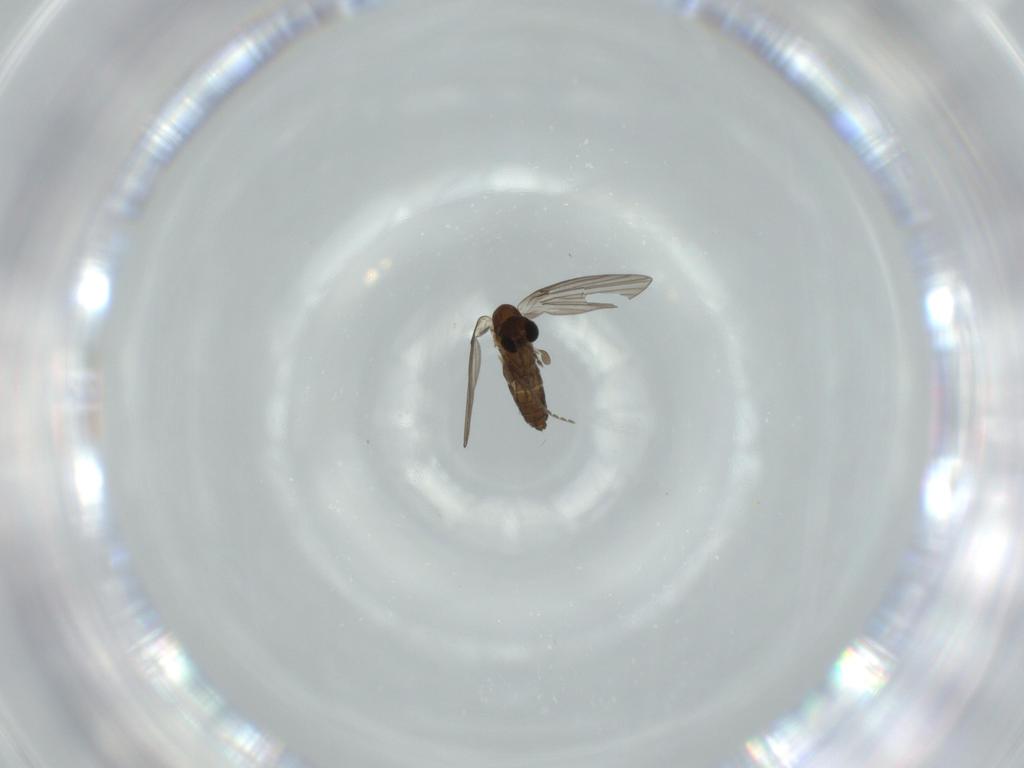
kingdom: Animalia
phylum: Arthropoda
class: Insecta
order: Diptera
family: Psychodidae
